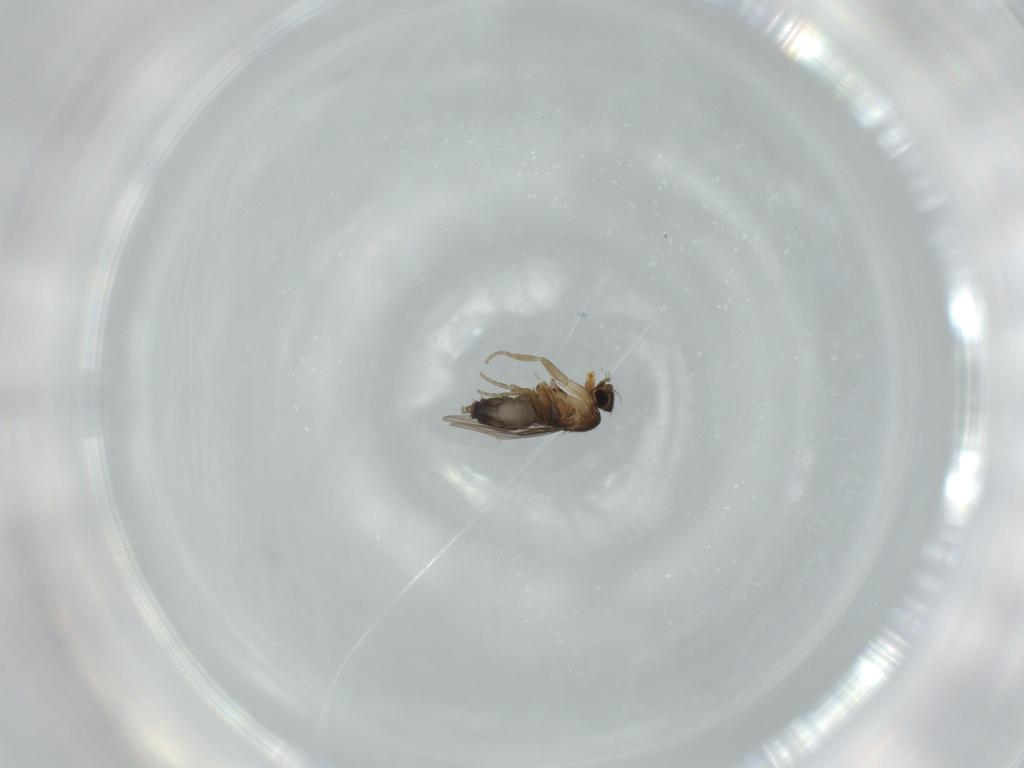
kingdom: Animalia
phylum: Arthropoda
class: Insecta
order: Diptera
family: Phoridae
